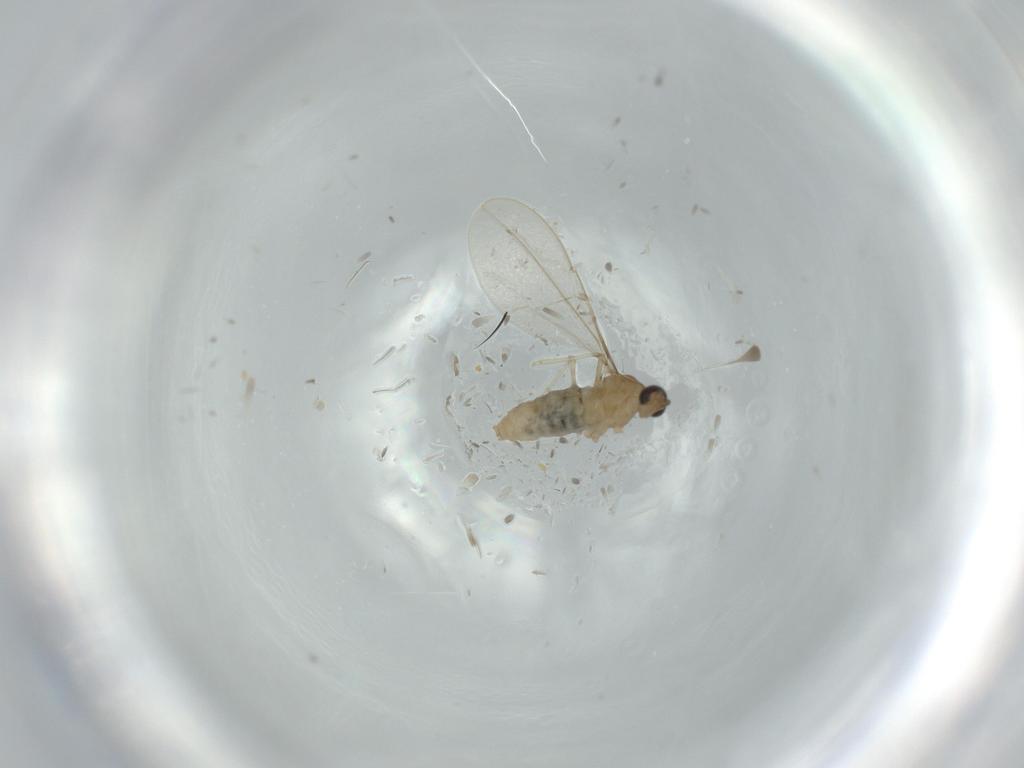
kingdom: Animalia
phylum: Arthropoda
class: Insecta
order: Diptera
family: Cecidomyiidae
